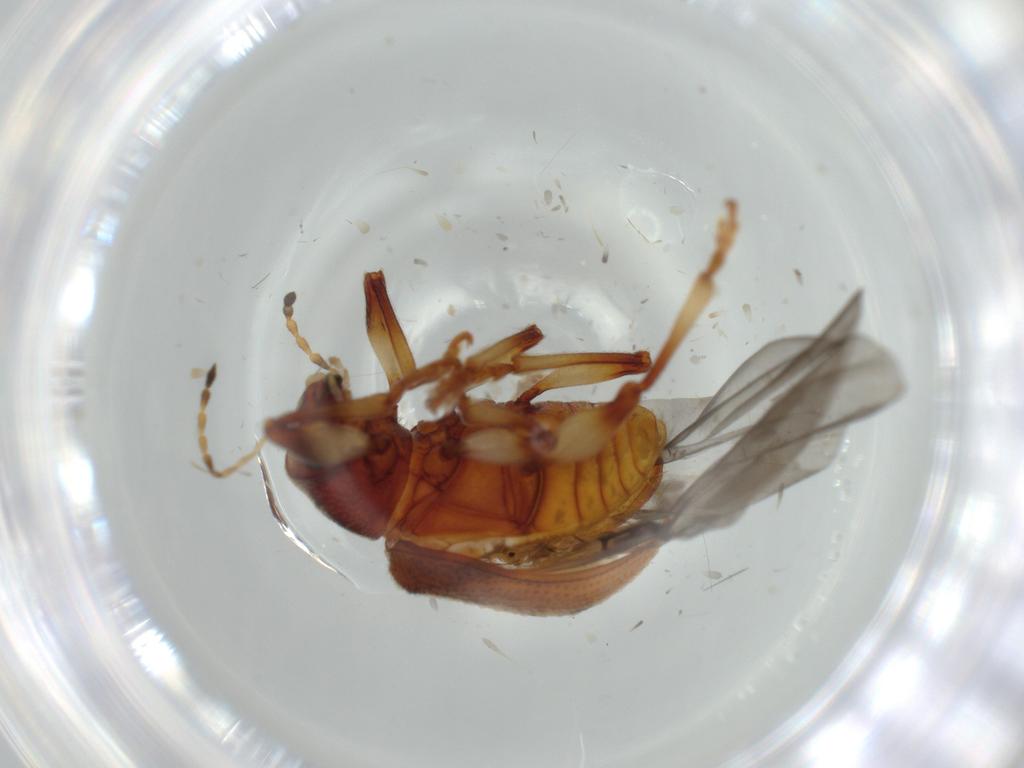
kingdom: Animalia
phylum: Arthropoda
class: Insecta
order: Coleoptera
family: Chrysomelidae
